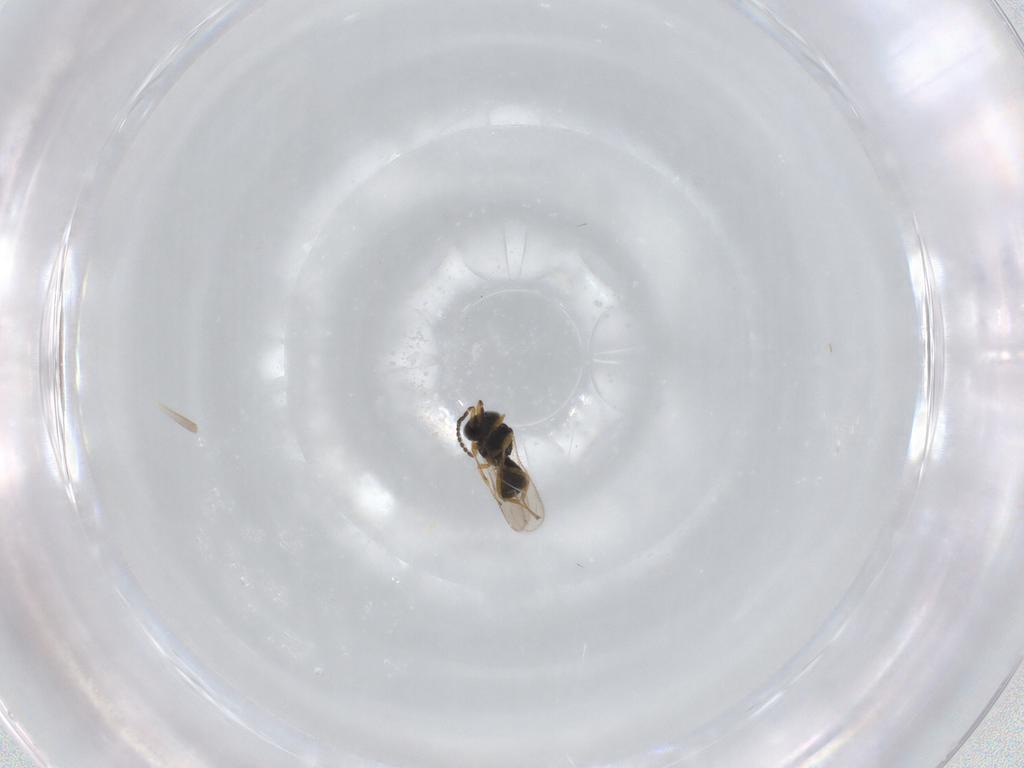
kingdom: Animalia
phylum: Arthropoda
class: Insecta
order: Hymenoptera
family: Scelionidae
